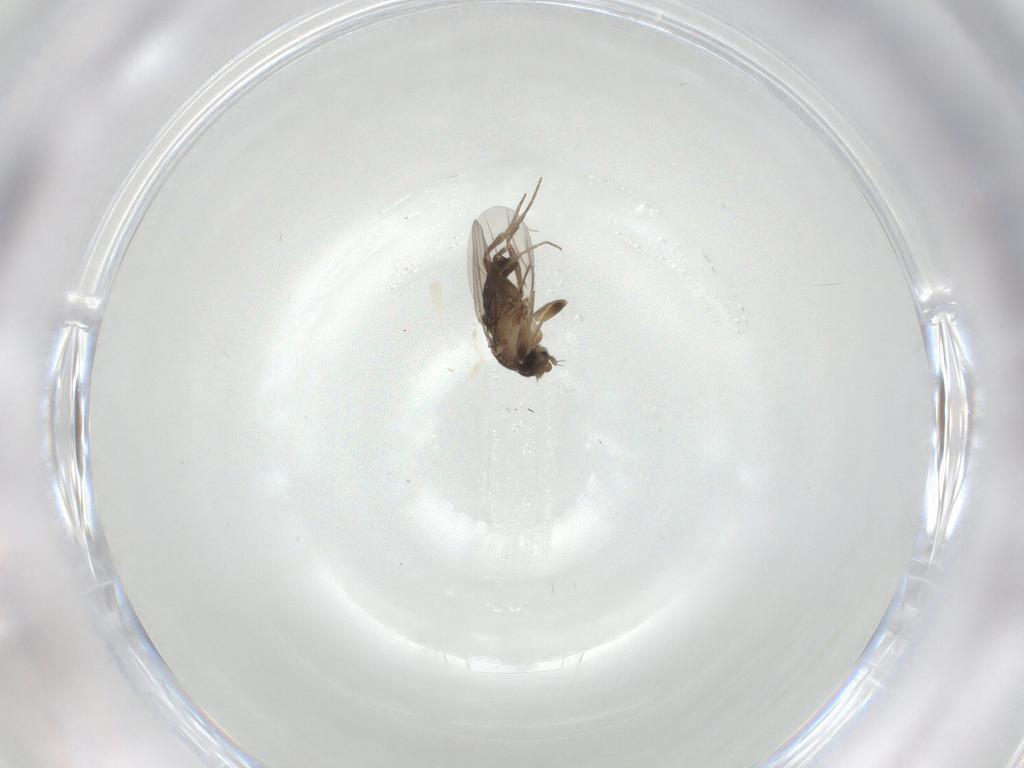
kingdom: Animalia
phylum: Arthropoda
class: Insecta
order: Diptera
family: Phoridae
